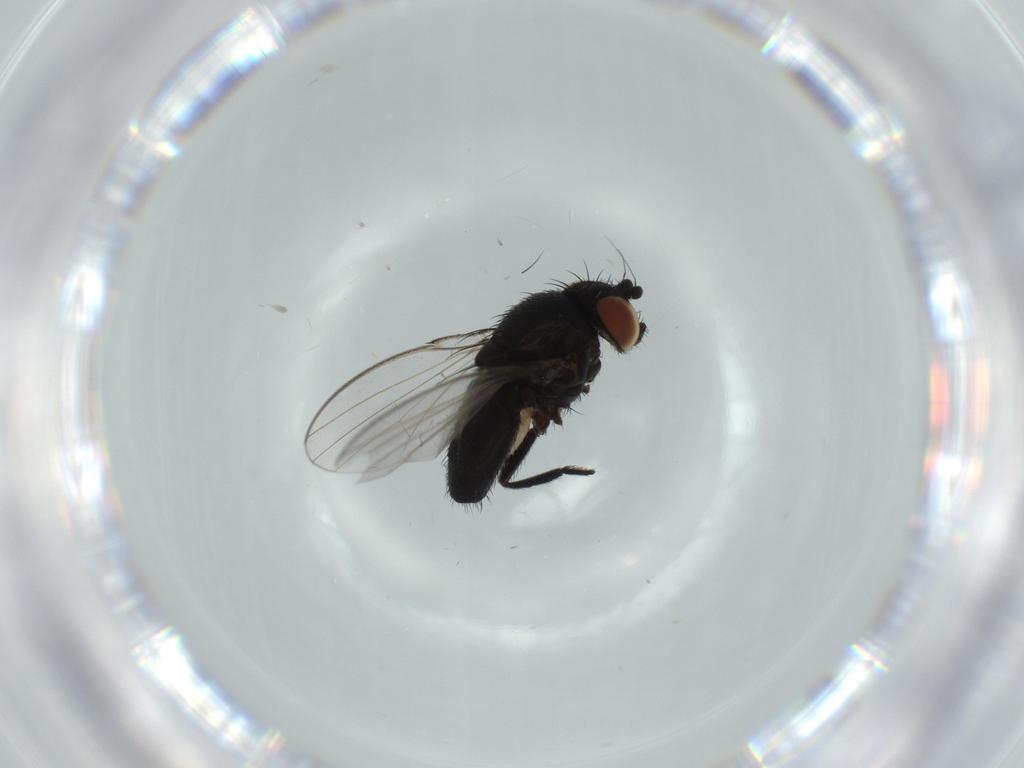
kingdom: Animalia
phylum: Arthropoda
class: Insecta
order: Diptera
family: Milichiidae
